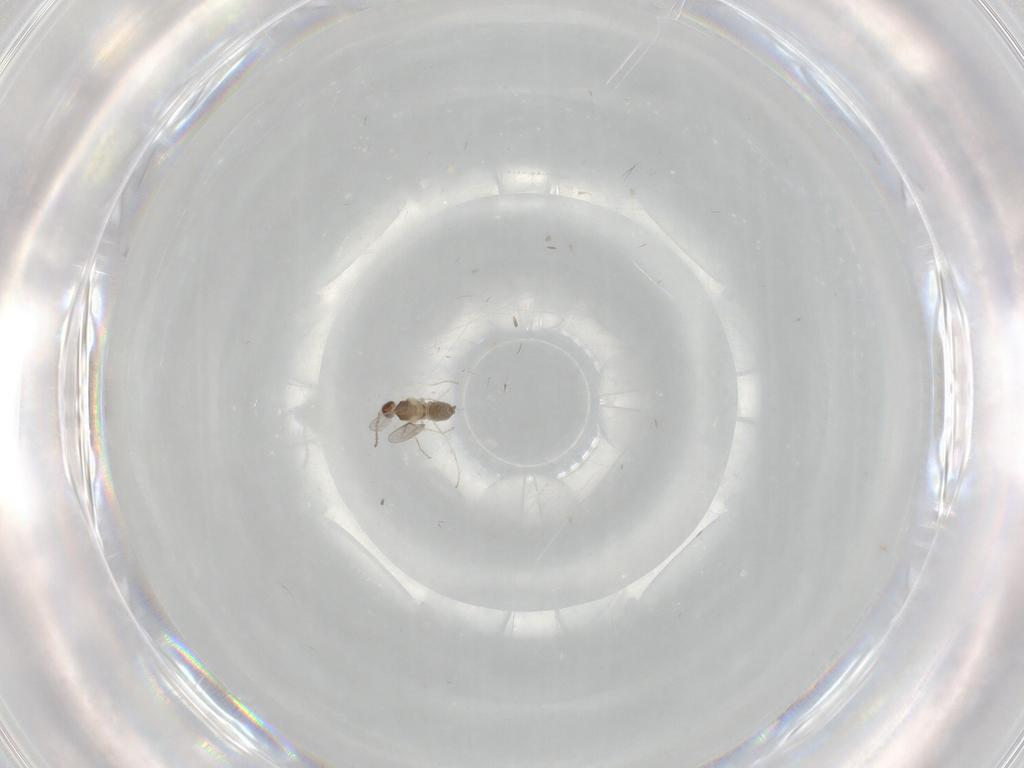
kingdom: Animalia
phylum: Arthropoda
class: Insecta
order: Diptera
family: Cecidomyiidae
